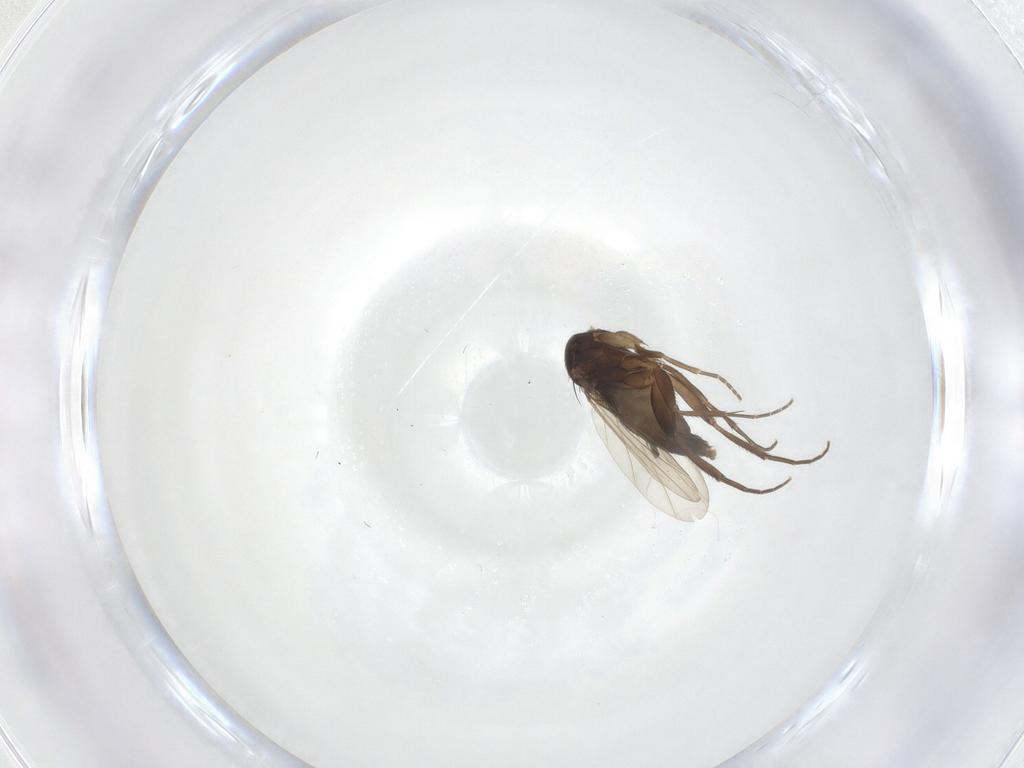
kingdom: Animalia
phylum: Arthropoda
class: Insecta
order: Diptera
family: Phoridae
